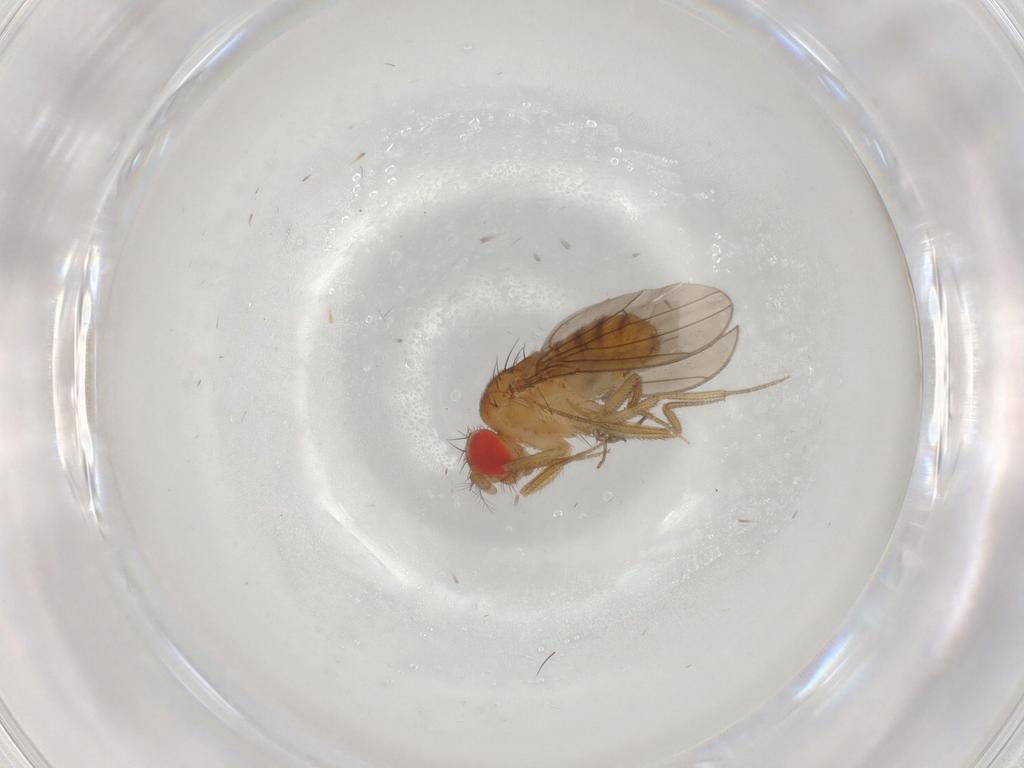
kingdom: Animalia
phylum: Arthropoda
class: Insecta
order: Diptera
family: Drosophilidae
